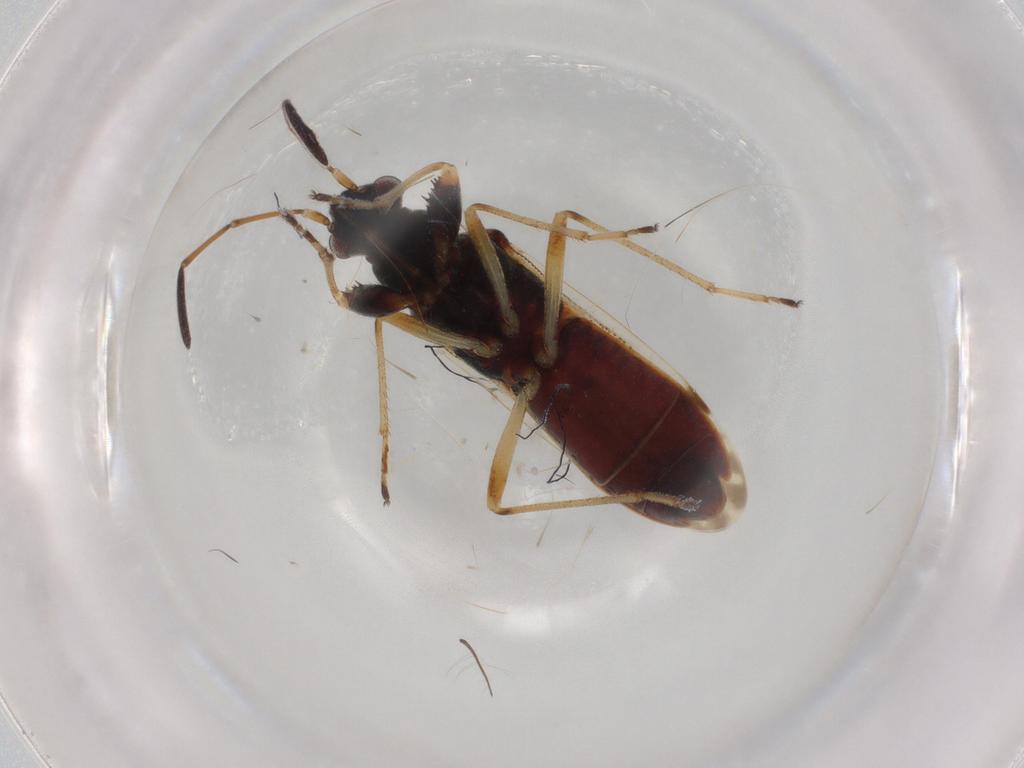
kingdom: Animalia
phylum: Arthropoda
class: Insecta
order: Hemiptera
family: Rhyparochromidae
